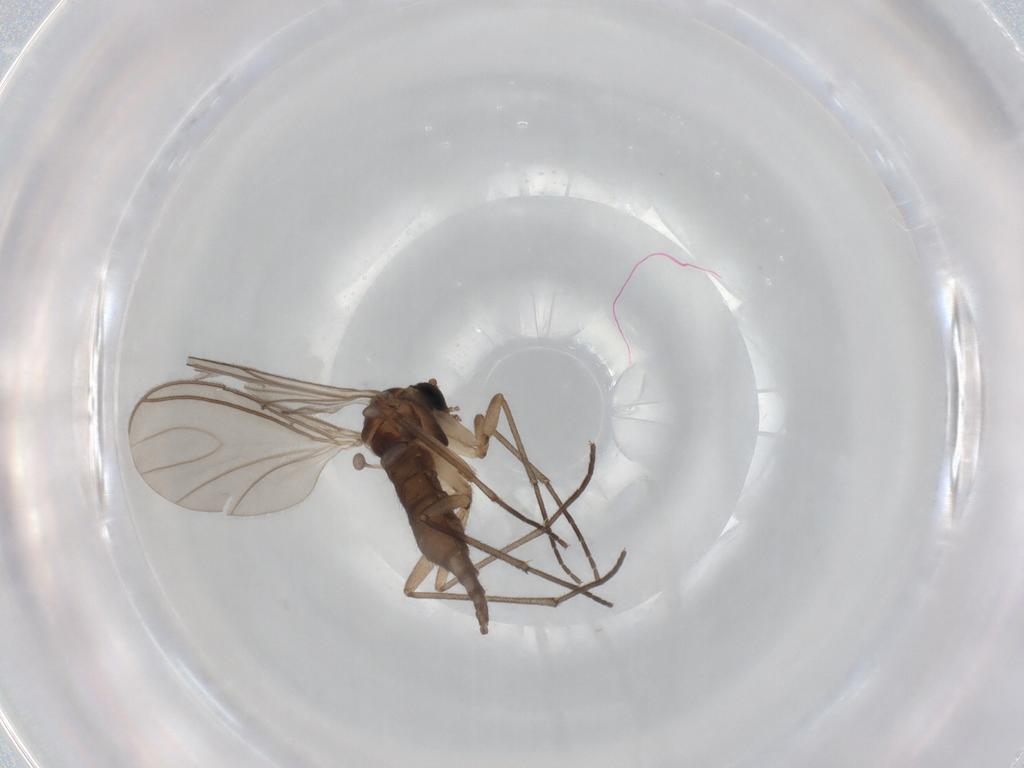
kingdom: Animalia
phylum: Arthropoda
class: Insecta
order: Diptera
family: Sciaridae
